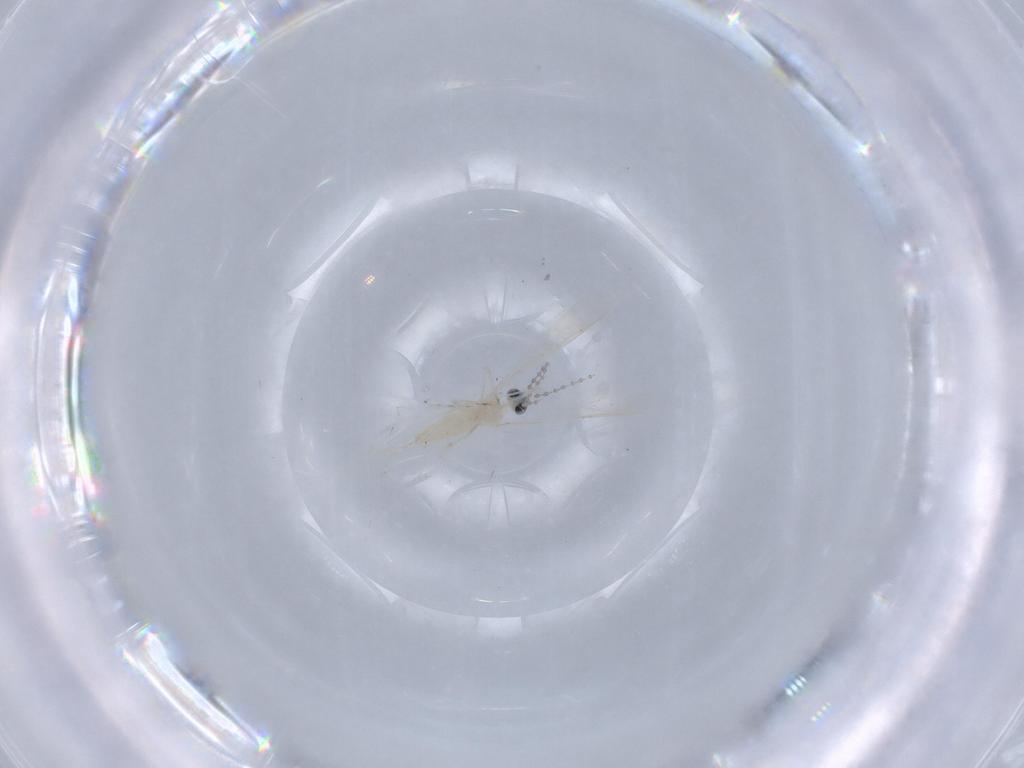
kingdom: Animalia
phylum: Arthropoda
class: Insecta
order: Diptera
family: Cecidomyiidae
